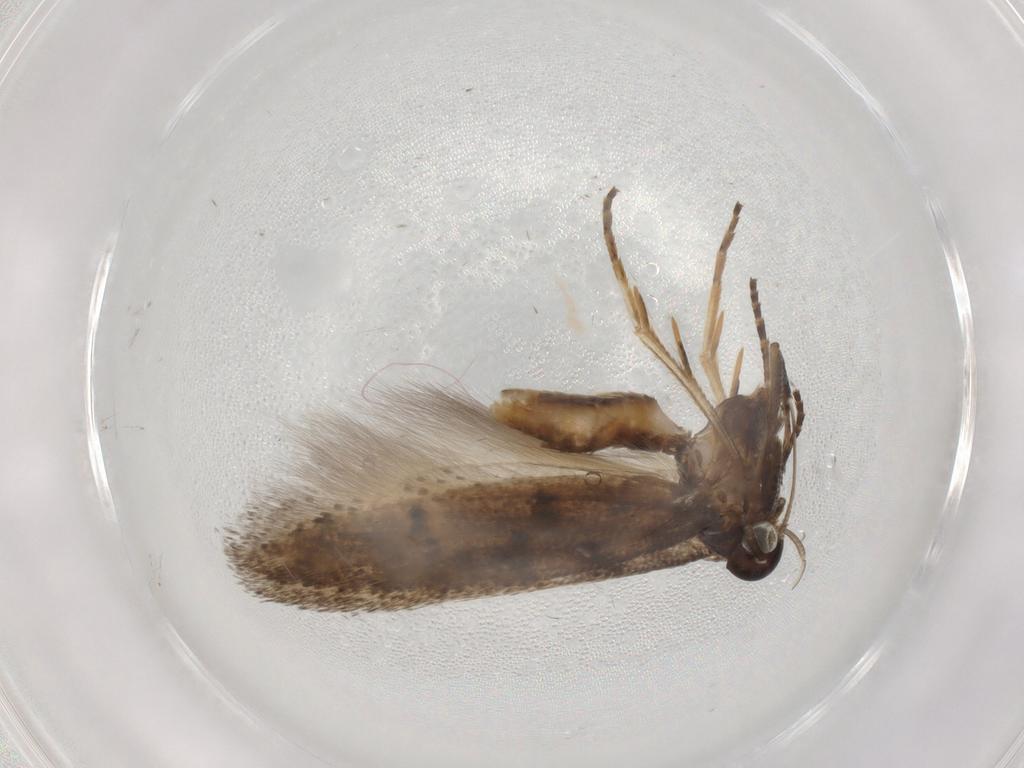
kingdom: Animalia
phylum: Arthropoda
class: Insecta
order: Lepidoptera
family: Gelechiidae
